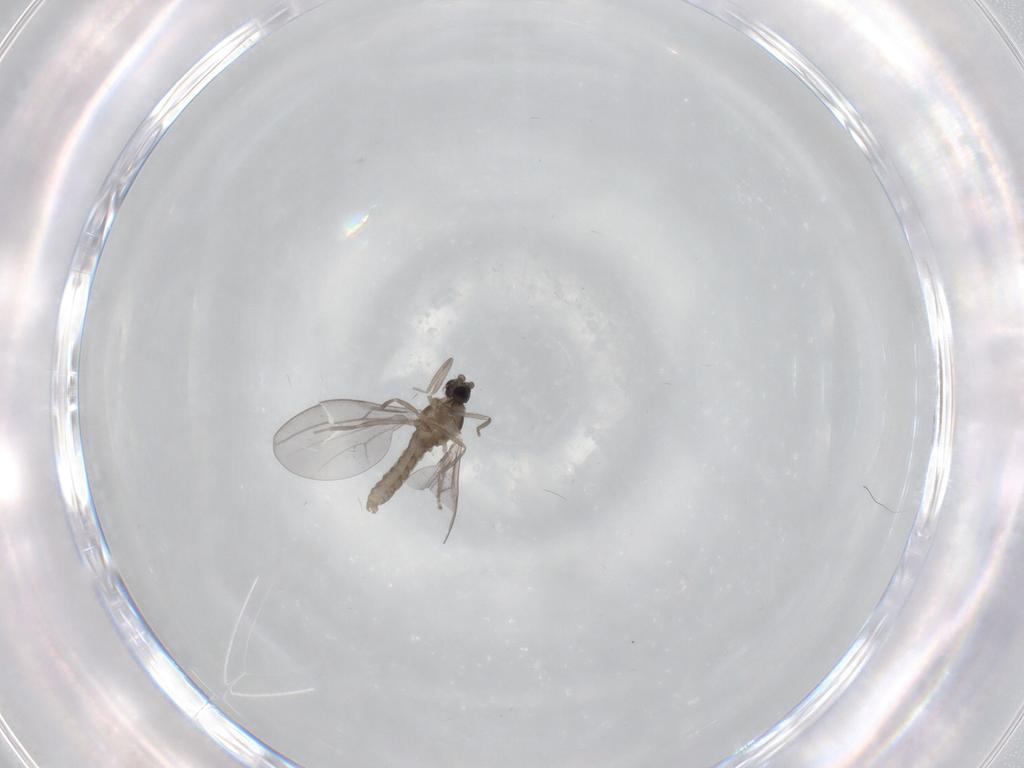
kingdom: Animalia
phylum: Arthropoda
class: Insecta
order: Diptera
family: Cecidomyiidae
